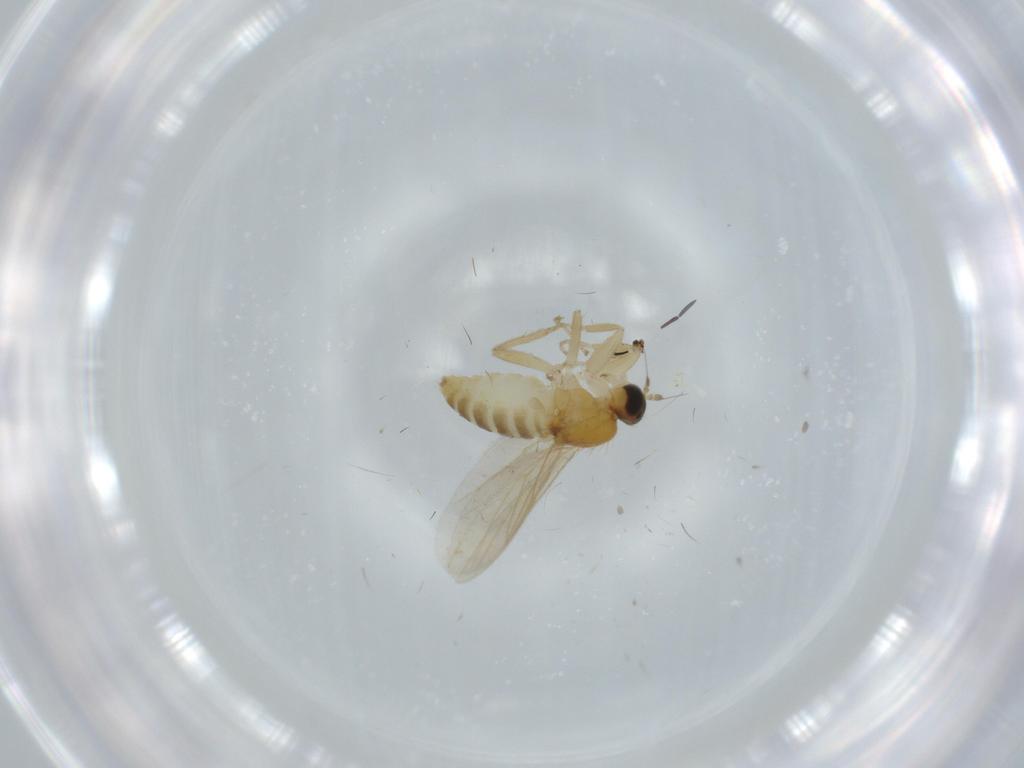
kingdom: Animalia
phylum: Arthropoda
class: Insecta
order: Diptera
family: Hybotidae
